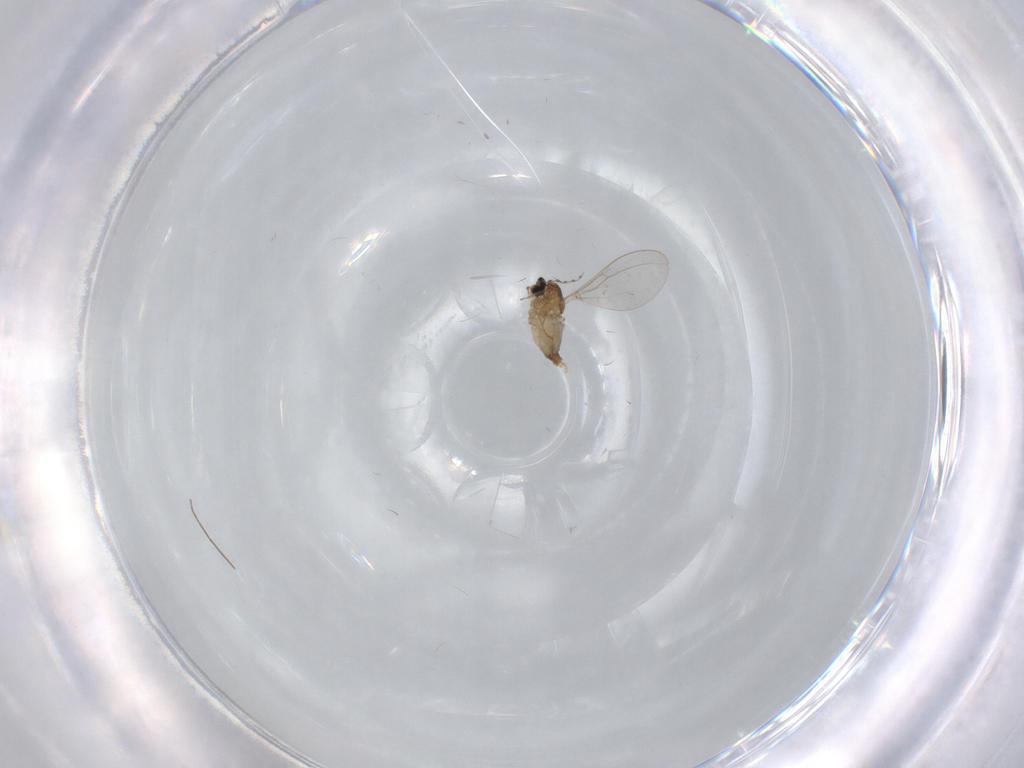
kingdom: Animalia
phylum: Arthropoda
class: Insecta
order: Diptera
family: Cecidomyiidae
